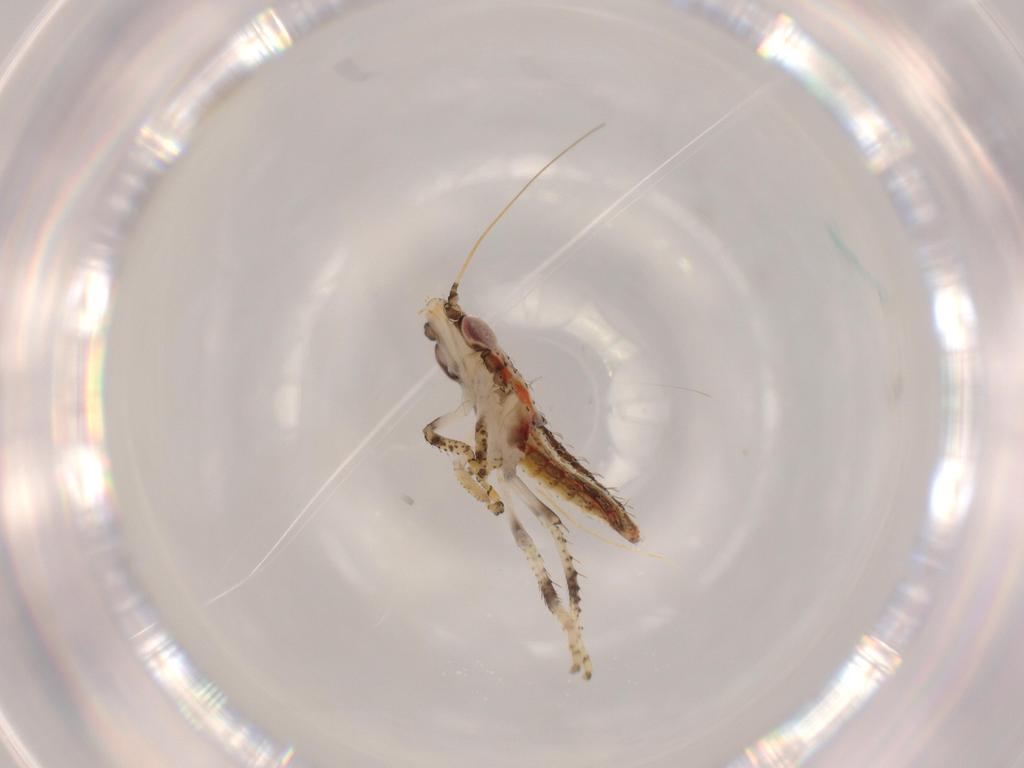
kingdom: Animalia
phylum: Arthropoda
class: Insecta
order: Hemiptera
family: Cicadellidae
